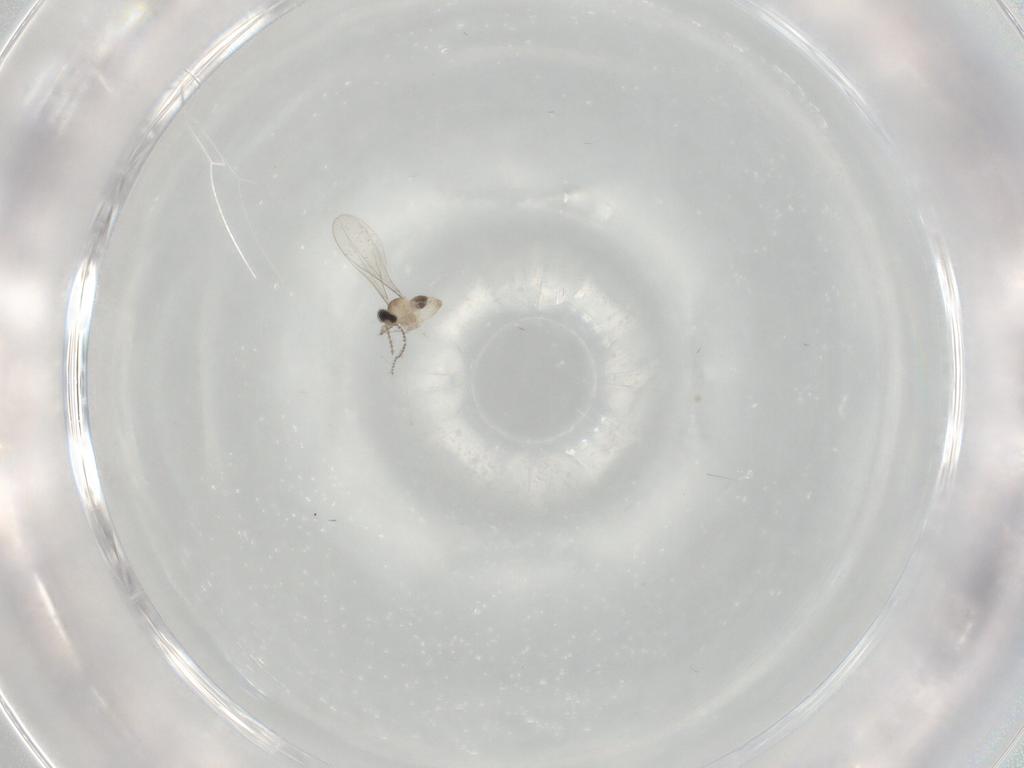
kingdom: Animalia
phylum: Arthropoda
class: Insecta
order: Diptera
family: Cecidomyiidae
